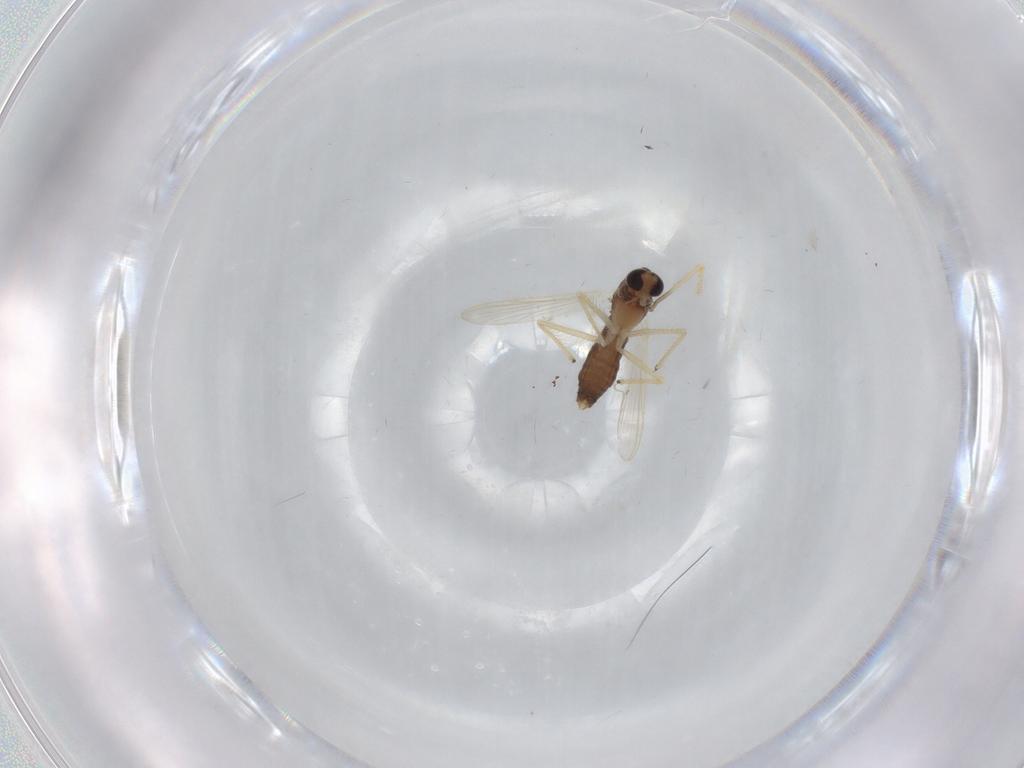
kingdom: Animalia
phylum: Arthropoda
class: Insecta
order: Diptera
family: Chironomidae
